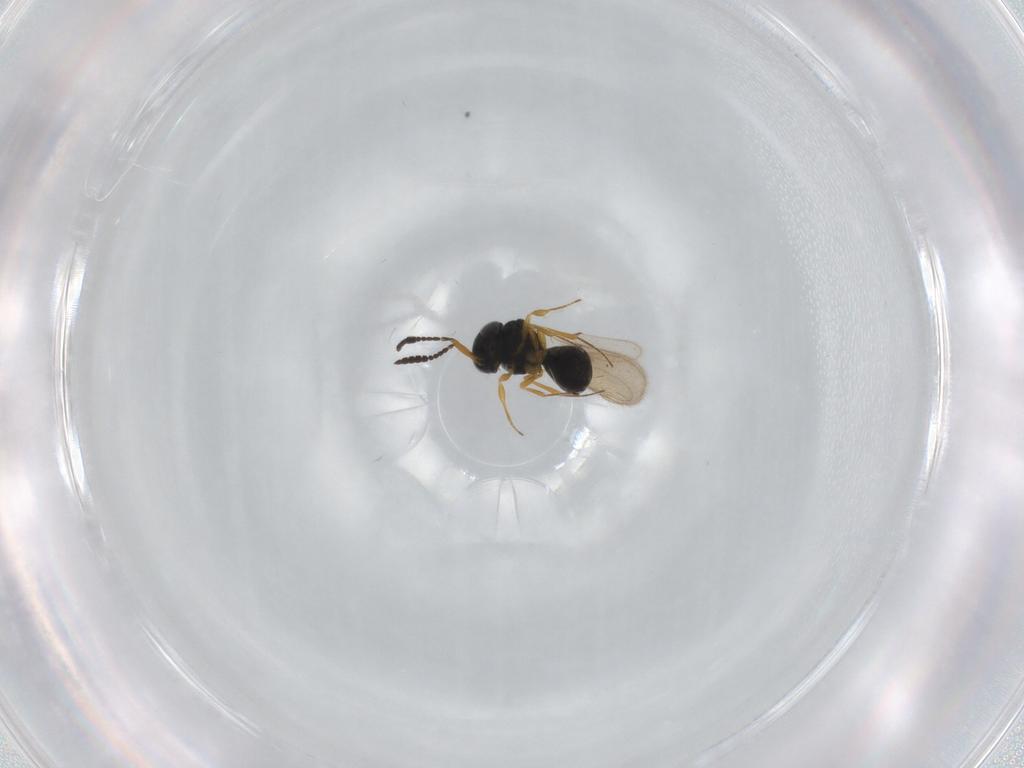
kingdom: Animalia
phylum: Arthropoda
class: Insecta
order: Hymenoptera
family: Scelionidae
